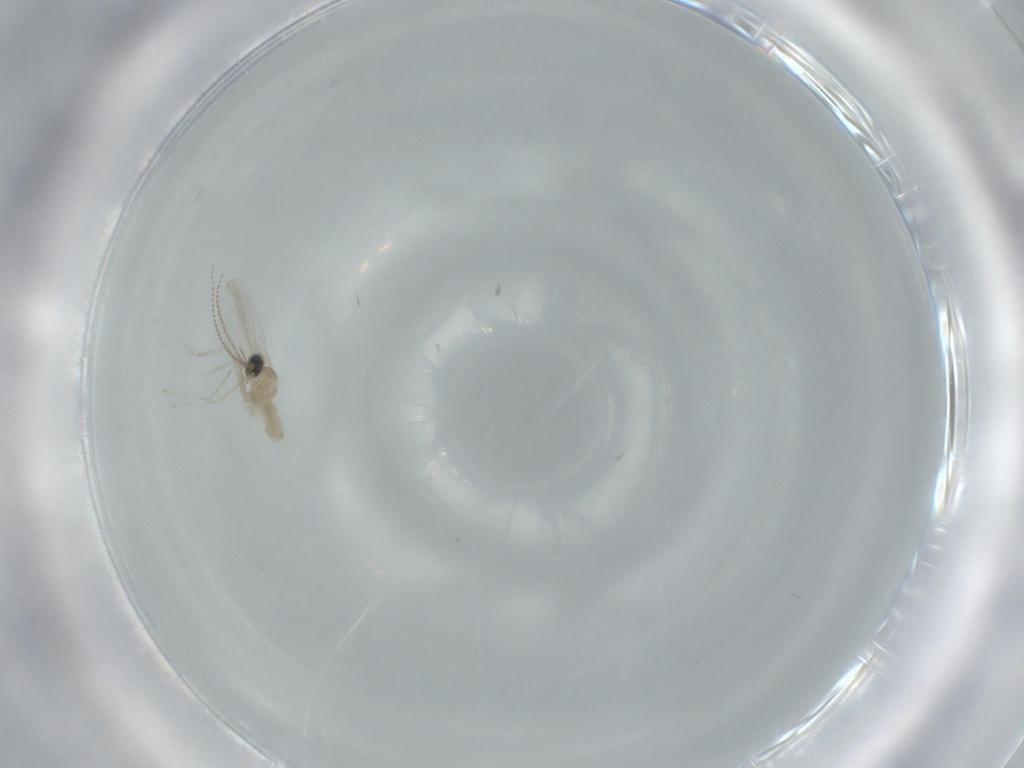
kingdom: Animalia
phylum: Arthropoda
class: Insecta
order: Diptera
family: Cecidomyiidae
